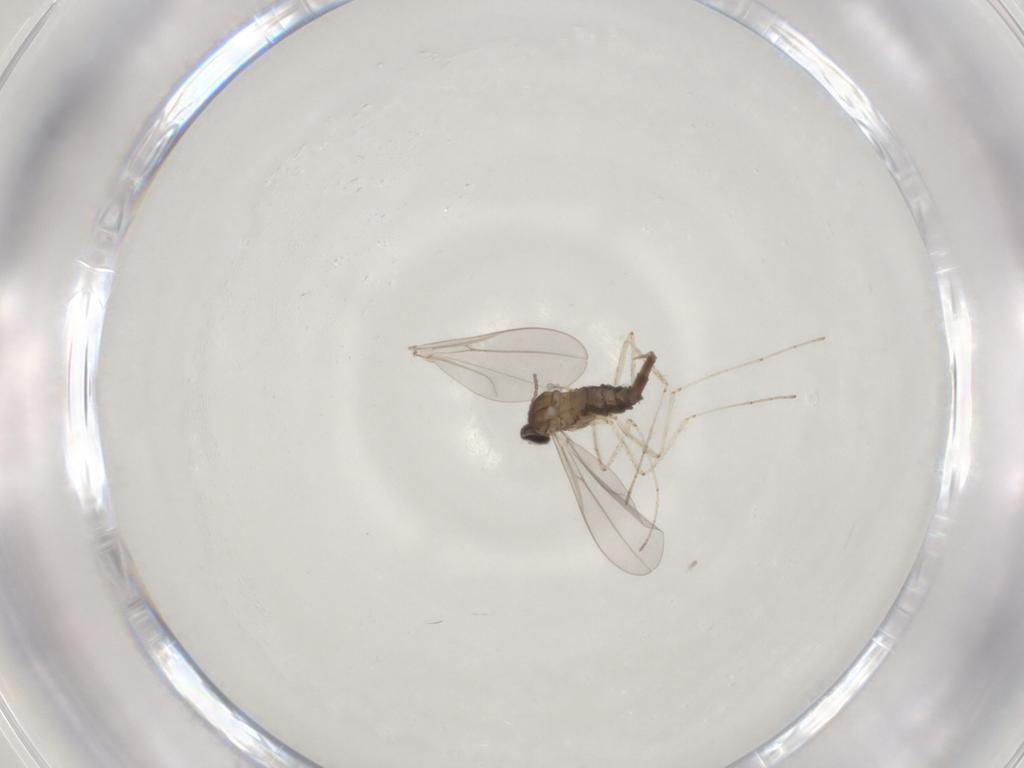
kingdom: Animalia
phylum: Arthropoda
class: Insecta
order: Diptera
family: Cecidomyiidae
